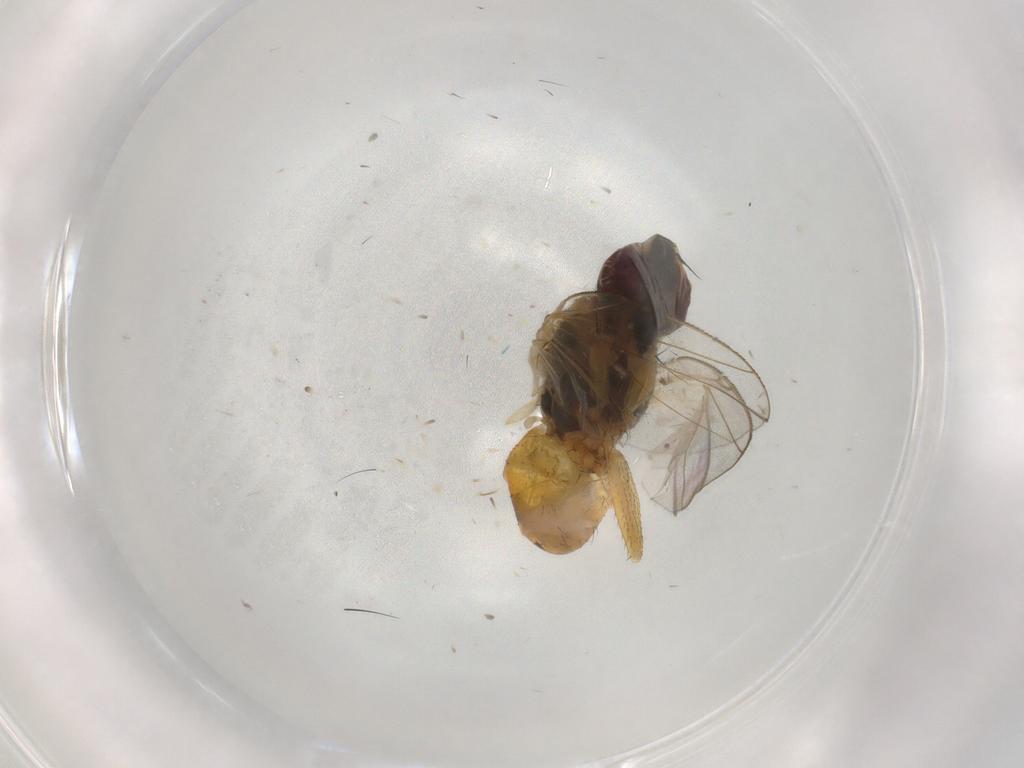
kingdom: Animalia
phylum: Arthropoda
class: Insecta
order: Diptera
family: Muscidae
